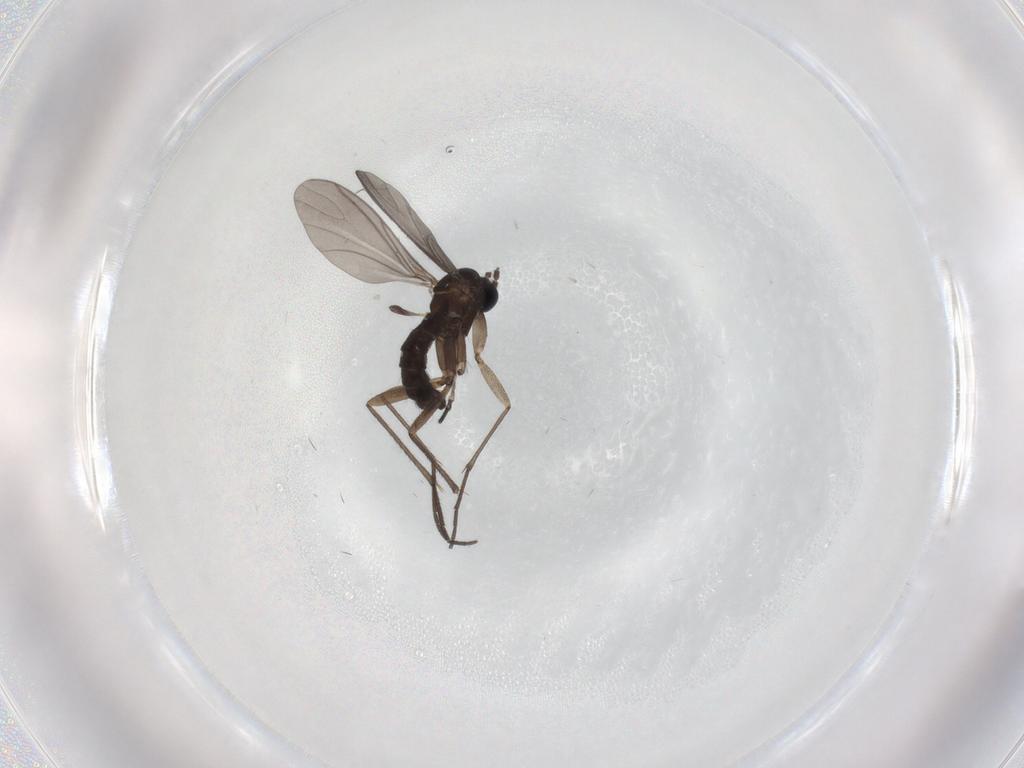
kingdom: Animalia
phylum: Arthropoda
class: Insecta
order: Diptera
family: Sciaridae
